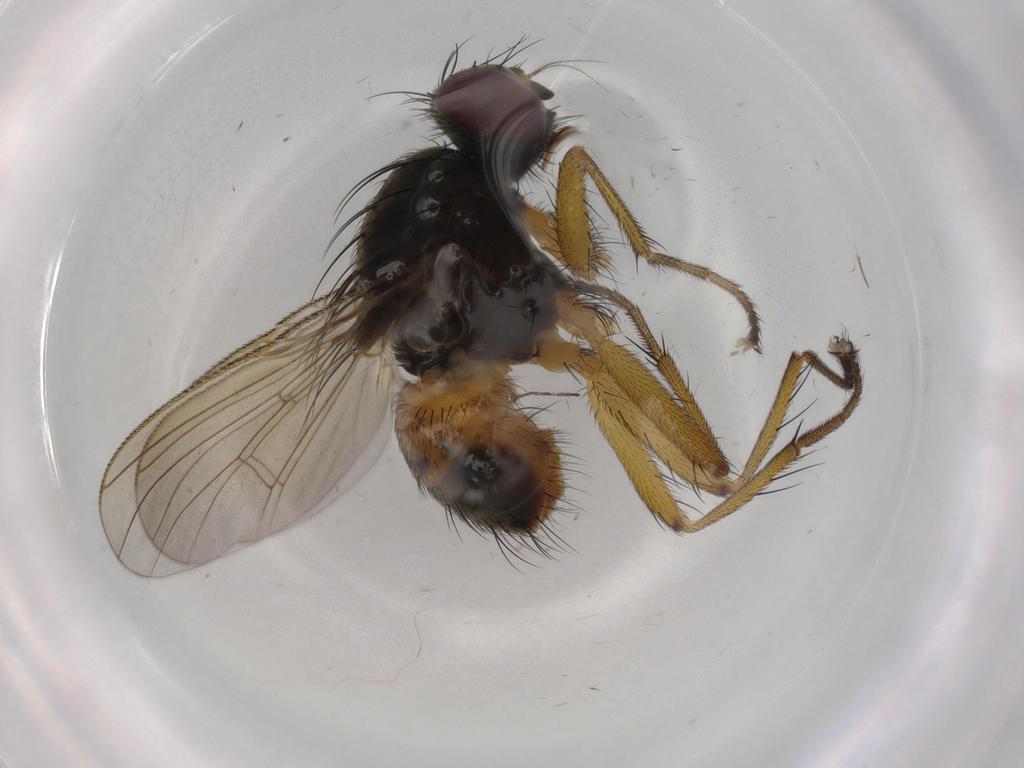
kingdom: Animalia
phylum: Arthropoda
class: Insecta
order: Diptera
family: Muscidae
